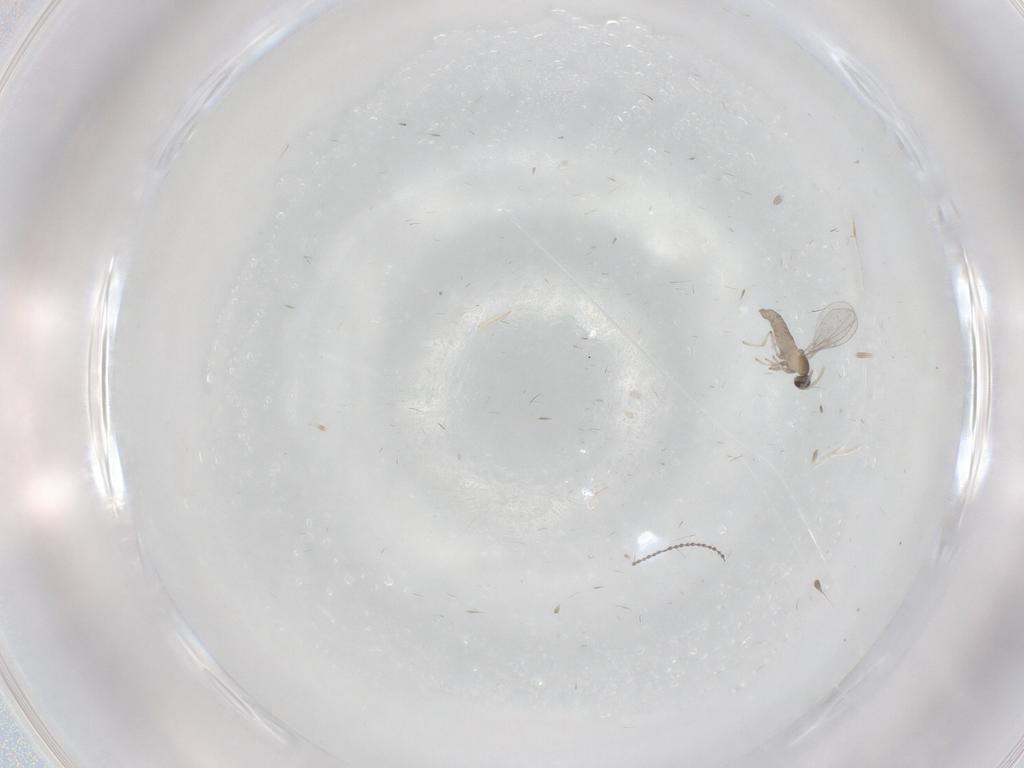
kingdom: Animalia
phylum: Arthropoda
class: Insecta
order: Diptera
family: Cecidomyiidae
